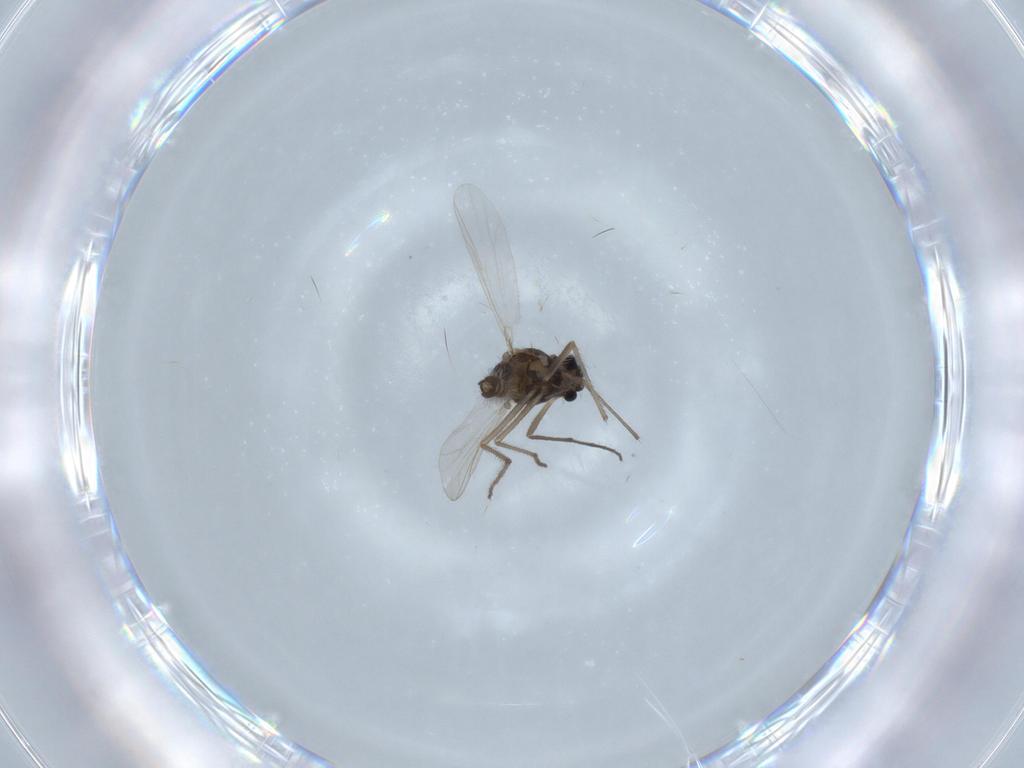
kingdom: Animalia
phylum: Arthropoda
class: Insecta
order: Diptera
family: Chironomidae
